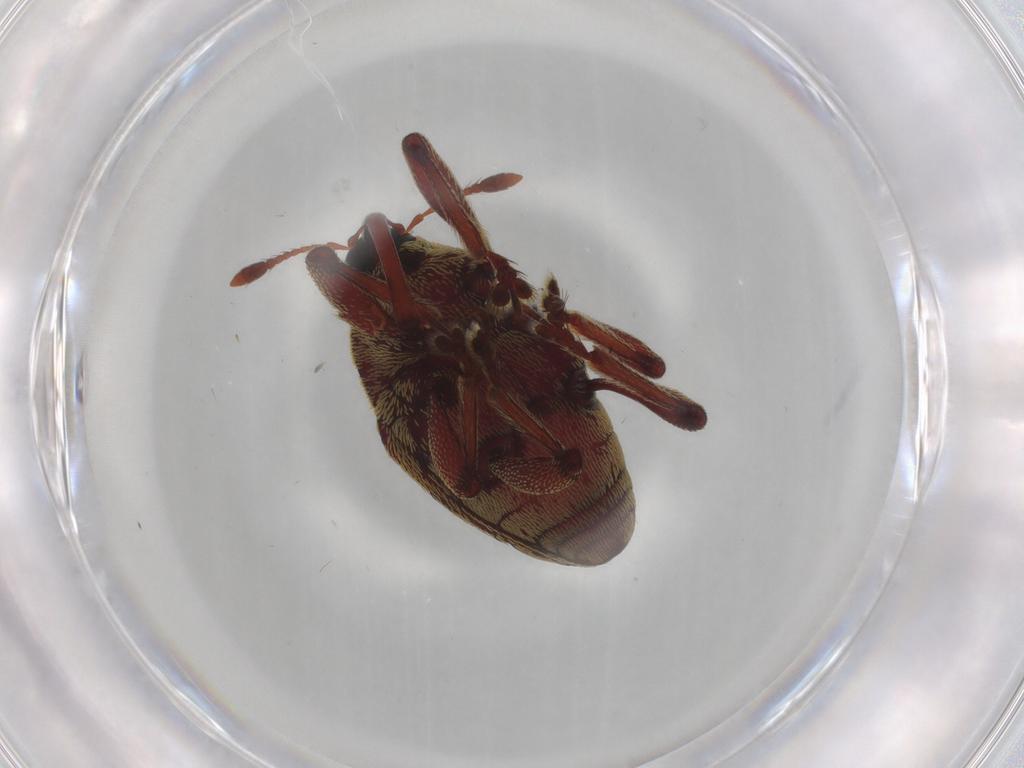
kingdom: Animalia
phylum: Arthropoda
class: Insecta
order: Coleoptera
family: Curculionidae
